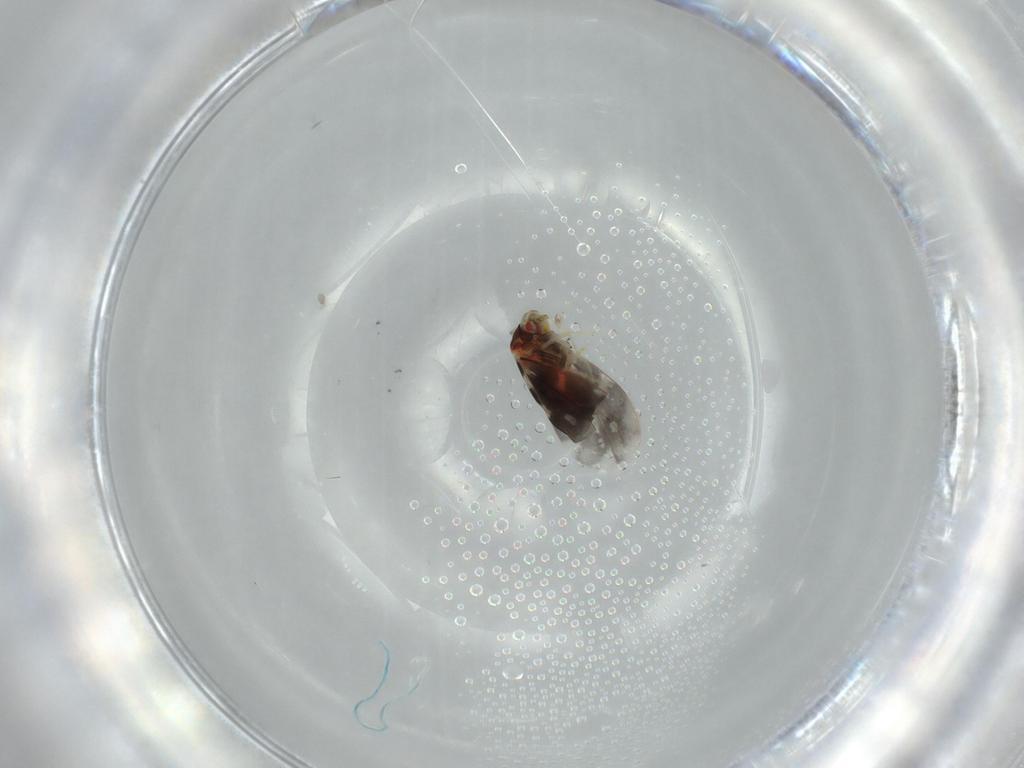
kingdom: Animalia
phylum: Arthropoda
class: Insecta
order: Hemiptera
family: Aleyrodidae
